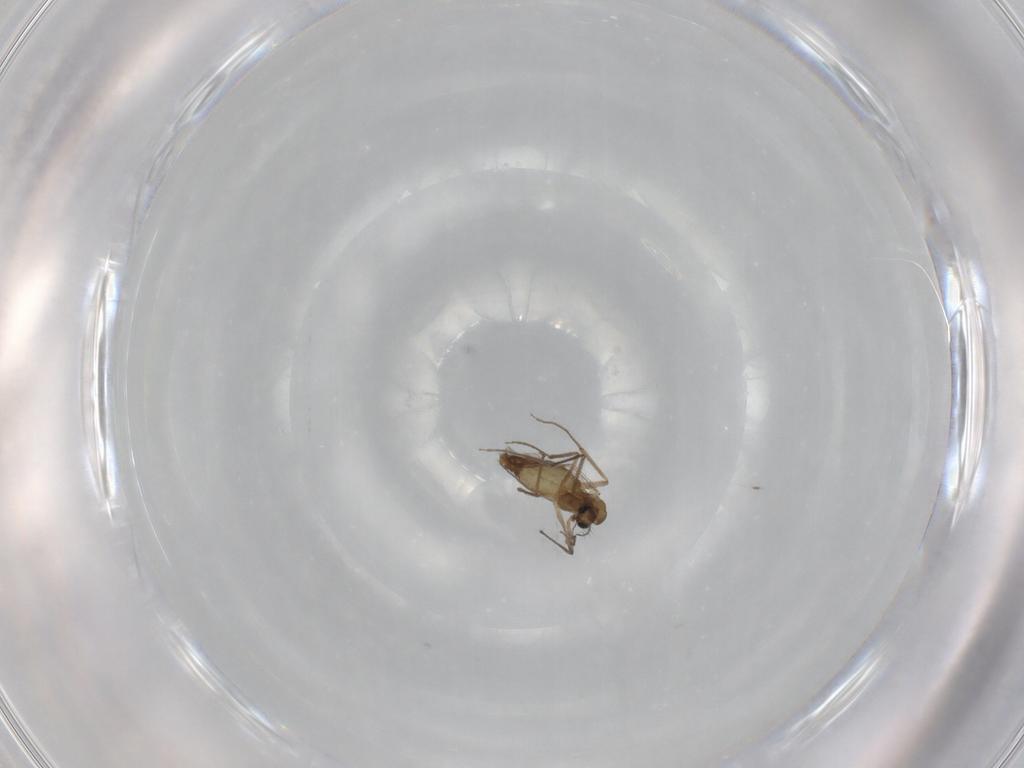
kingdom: Animalia
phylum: Arthropoda
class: Insecta
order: Diptera
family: Chironomidae
